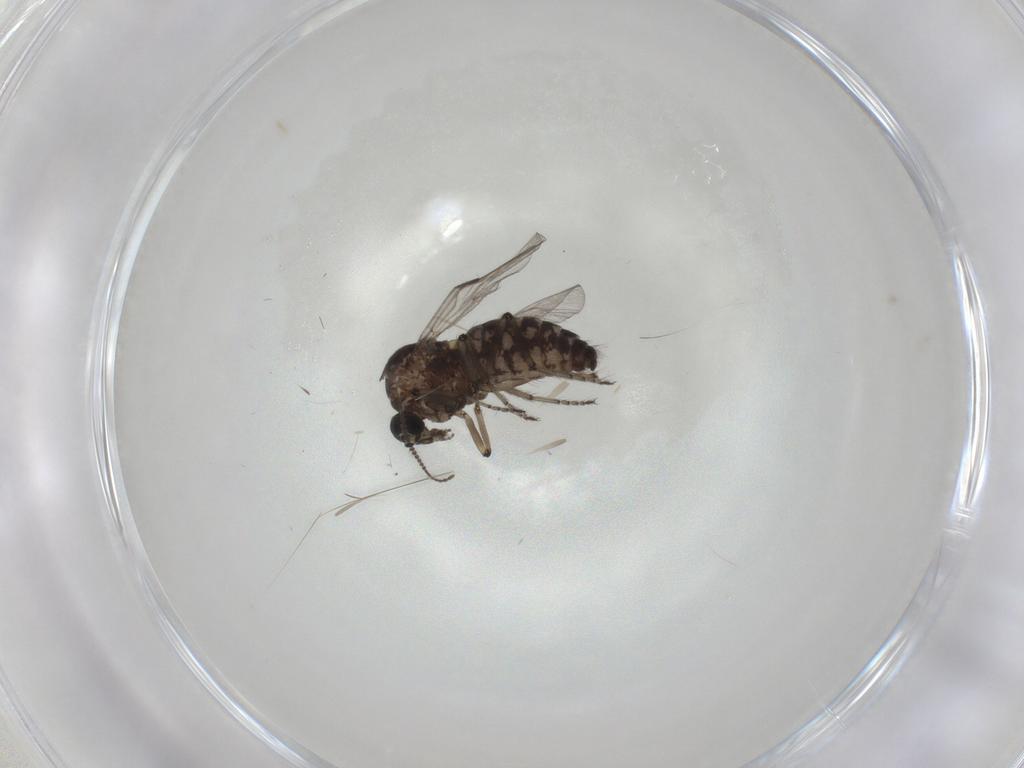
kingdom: Animalia
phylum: Arthropoda
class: Insecta
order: Diptera
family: Ceratopogonidae
